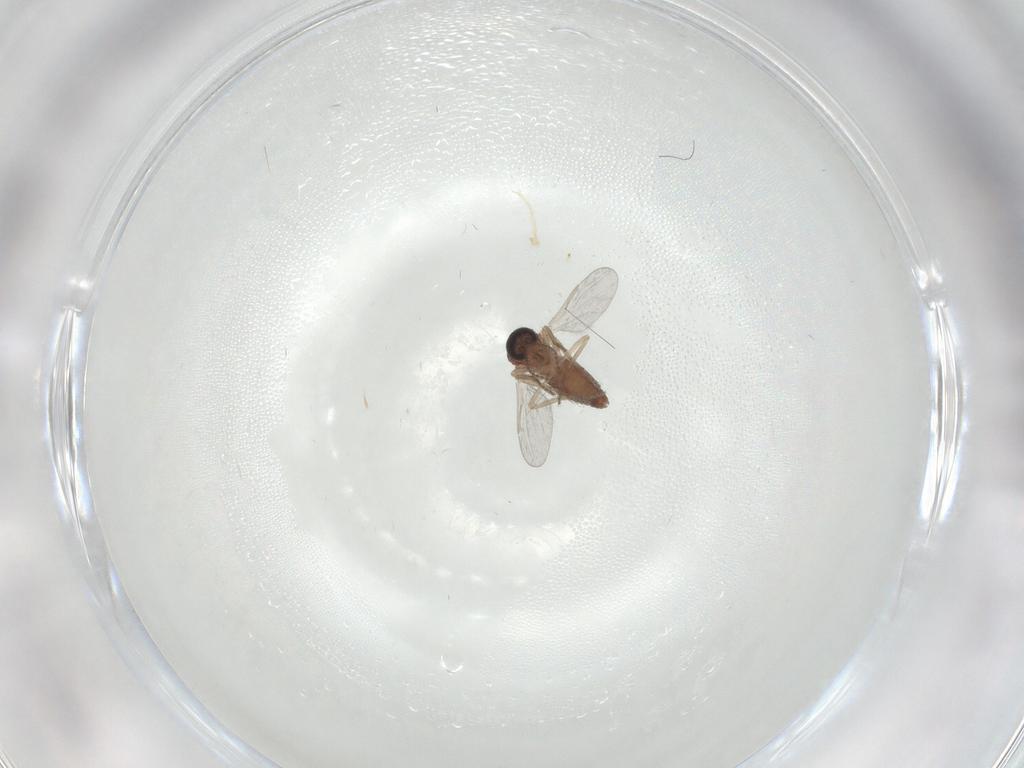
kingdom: Animalia
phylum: Arthropoda
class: Insecta
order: Diptera
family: Ceratopogonidae
